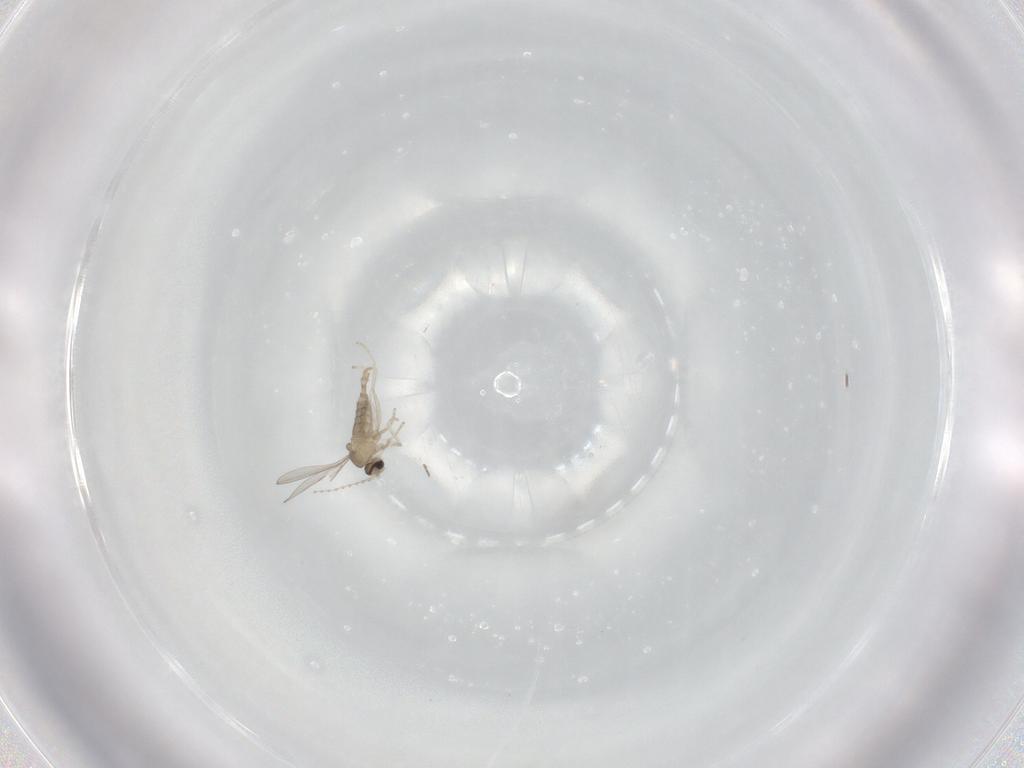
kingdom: Animalia
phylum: Arthropoda
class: Insecta
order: Diptera
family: Cecidomyiidae
